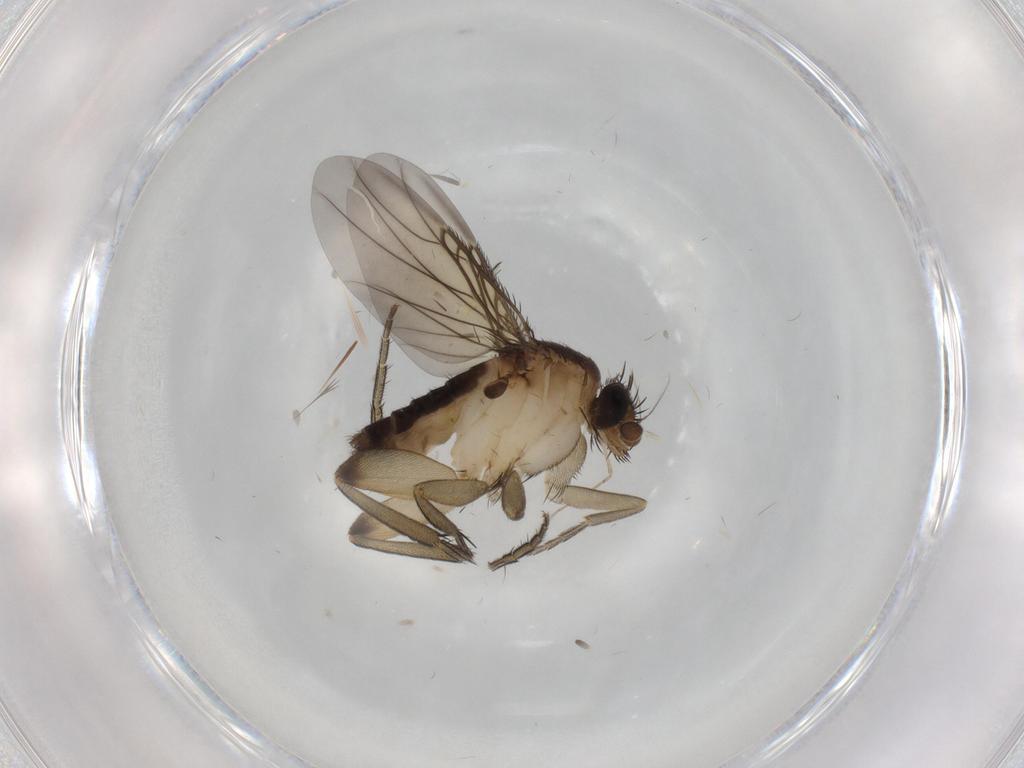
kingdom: Animalia
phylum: Arthropoda
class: Insecta
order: Diptera
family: Phoridae
